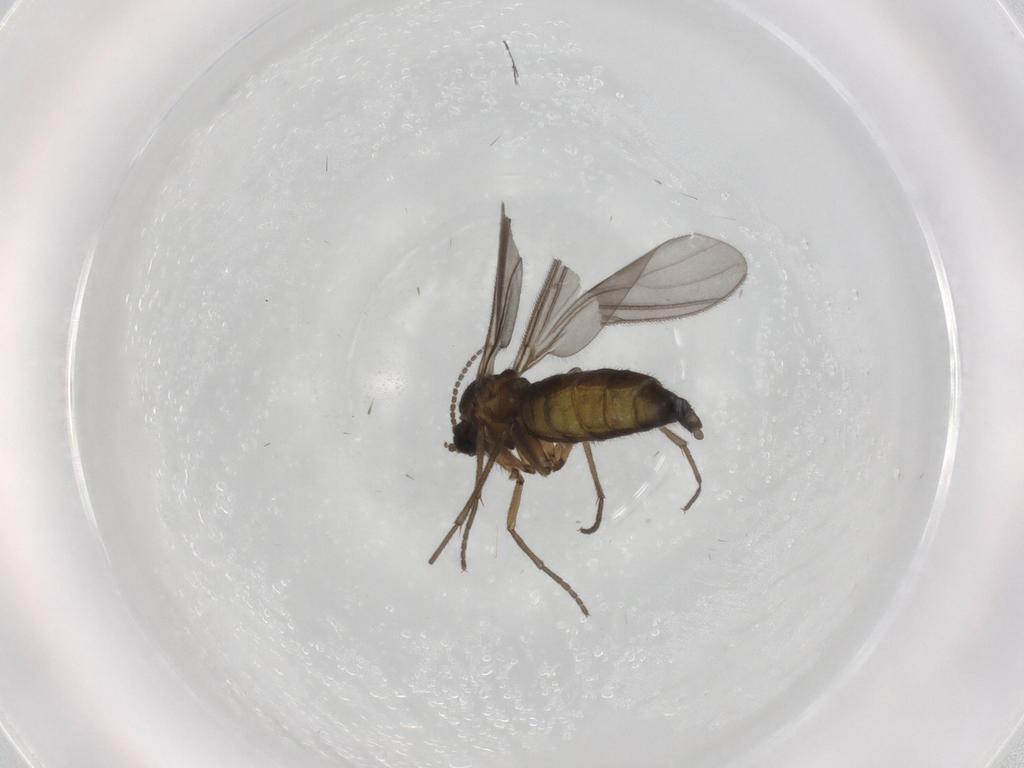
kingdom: Animalia
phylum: Arthropoda
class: Insecta
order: Diptera
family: Sciaridae
